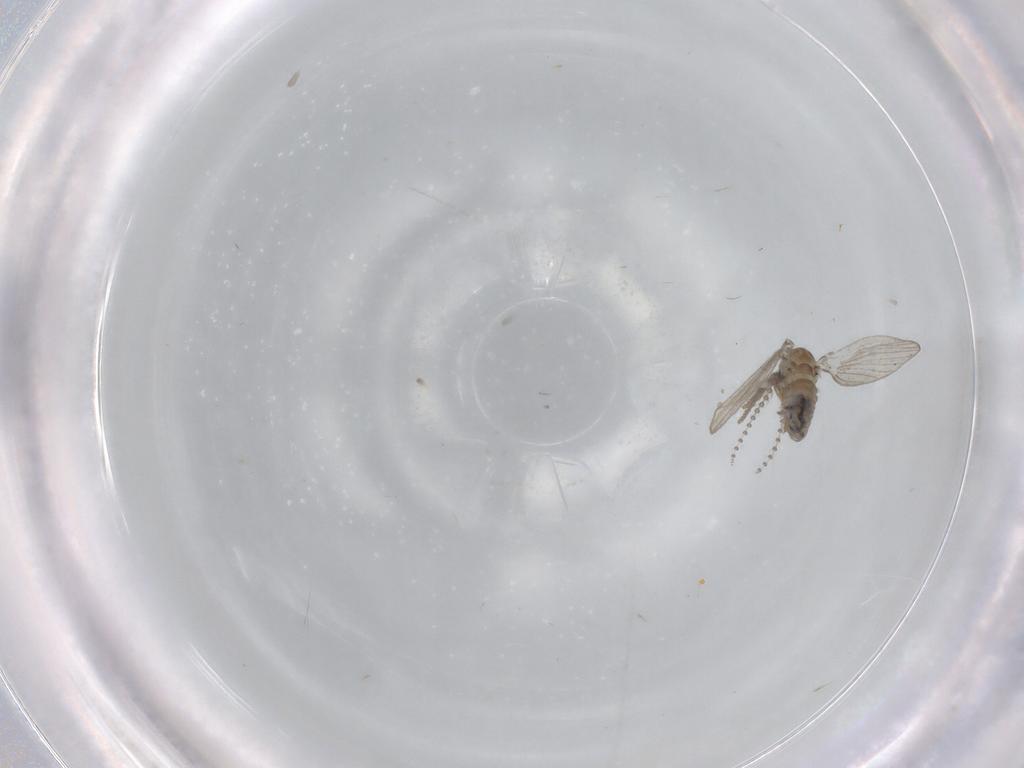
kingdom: Animalia
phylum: Arthropoda
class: Insecta
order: Diptera
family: Psychodidae
